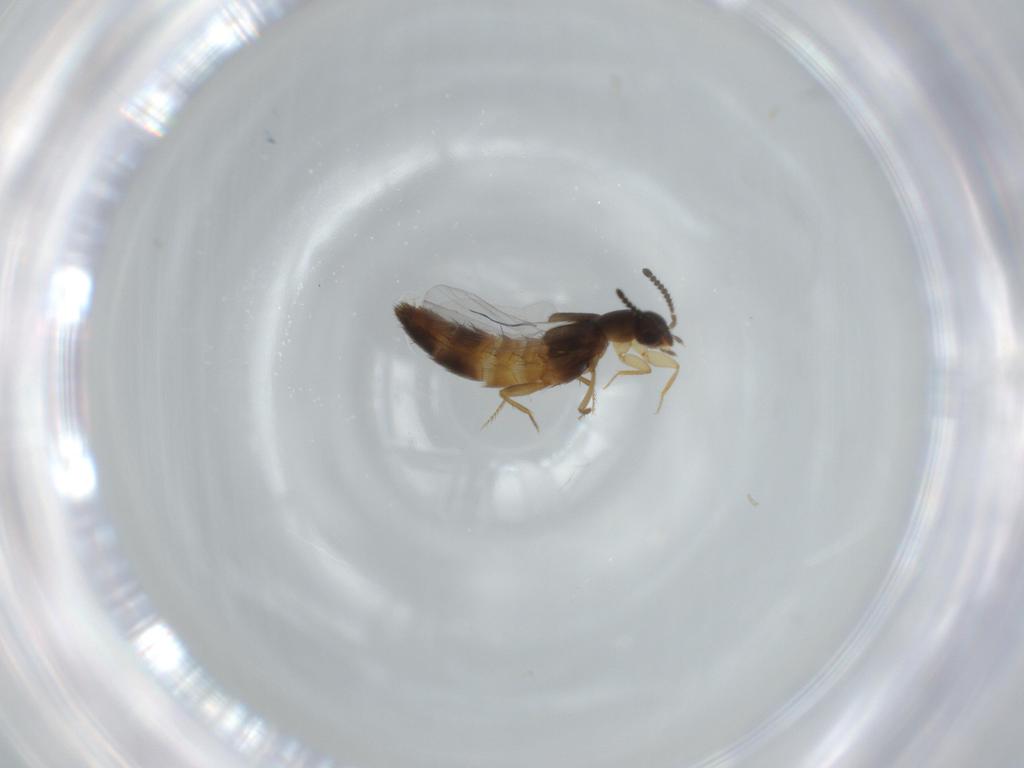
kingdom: Animalia
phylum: Arthropoda
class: Insecta
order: Coleoptera
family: Staphylinidae
